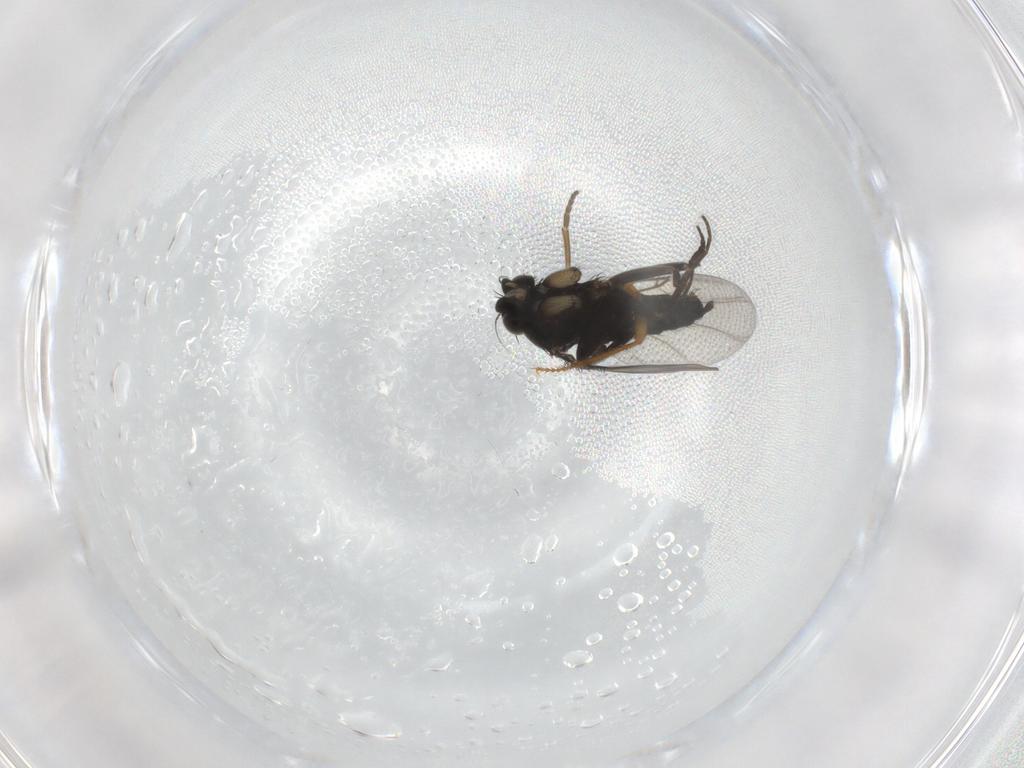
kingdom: Animalia
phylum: Arthropoda
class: Insecta
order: Diptera
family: Phoridae
